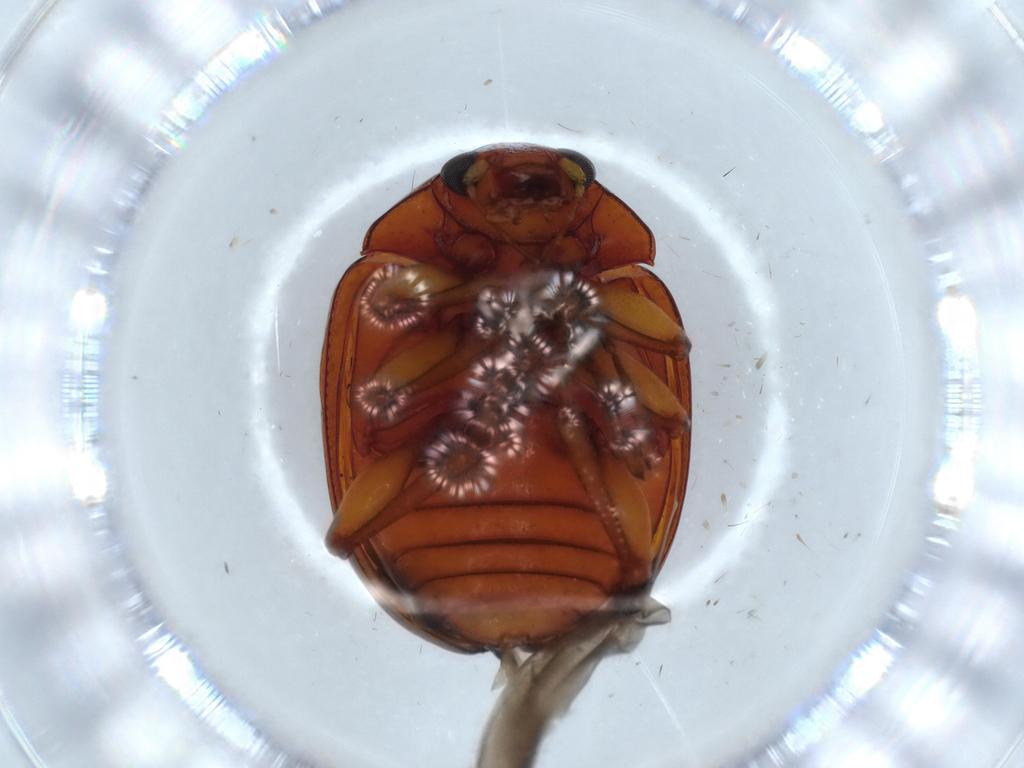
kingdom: Animalia
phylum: Arthropoda
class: Insecta
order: Coleoptera
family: Chrysomelidae
